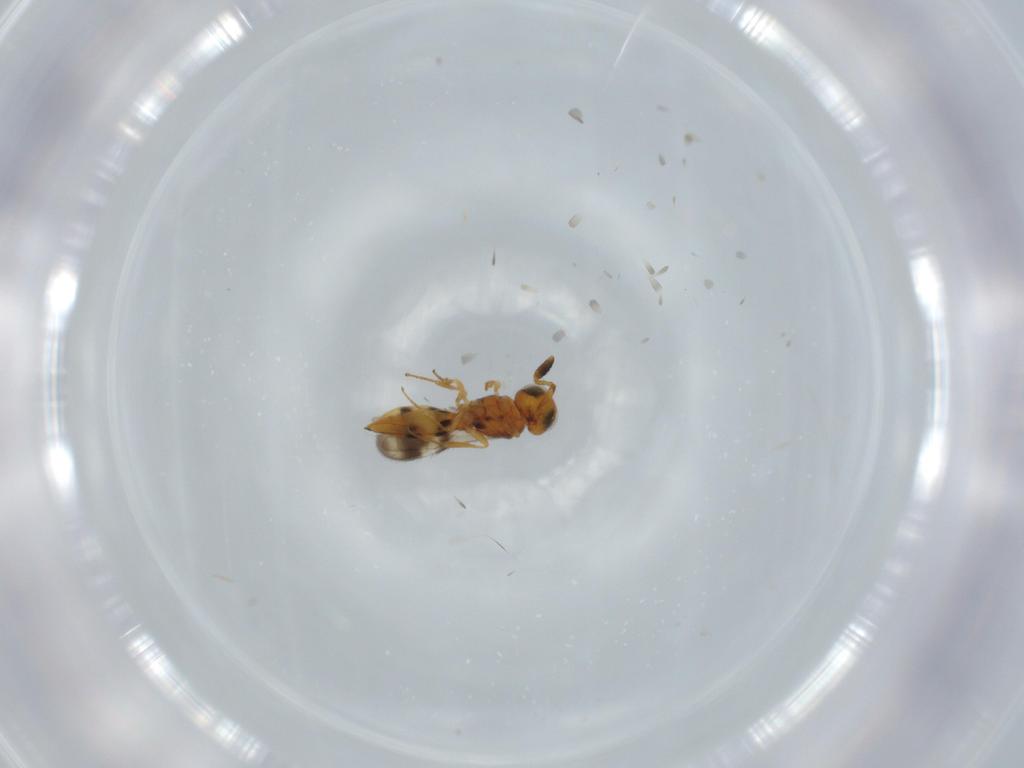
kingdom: Animalia
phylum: Arthropoda
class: Insecta
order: Hymenoptera
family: Scelionidae
